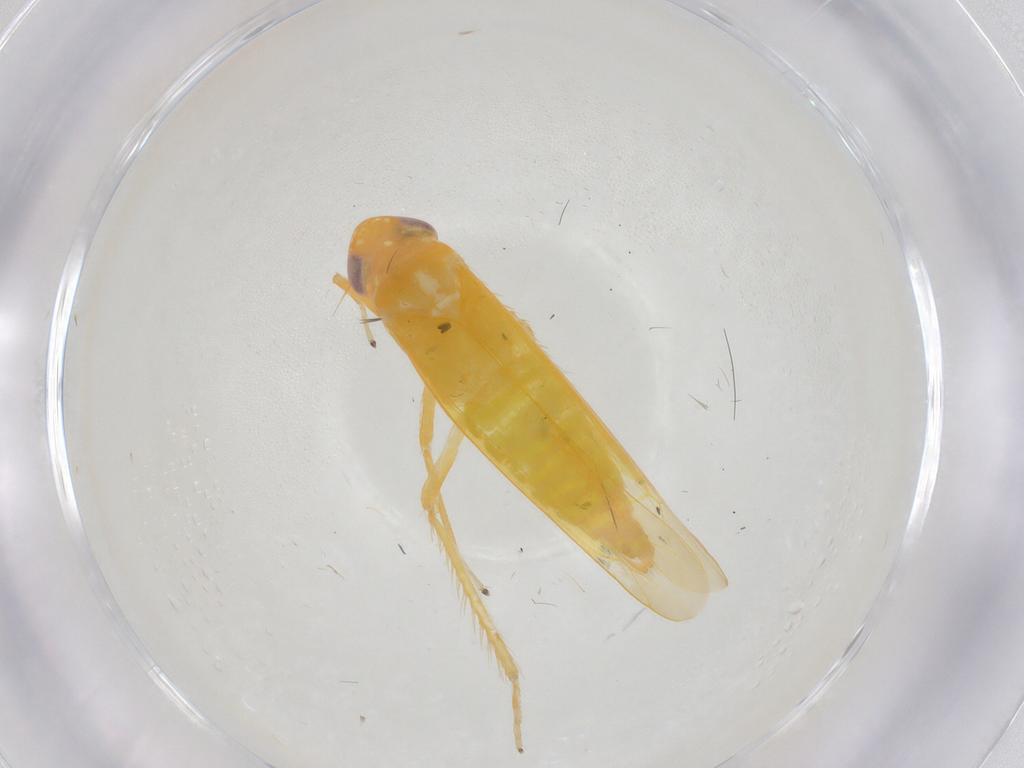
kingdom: Animalia
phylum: Arthropoda
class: Insecta
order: Hemiptera
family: Cicadellidae
